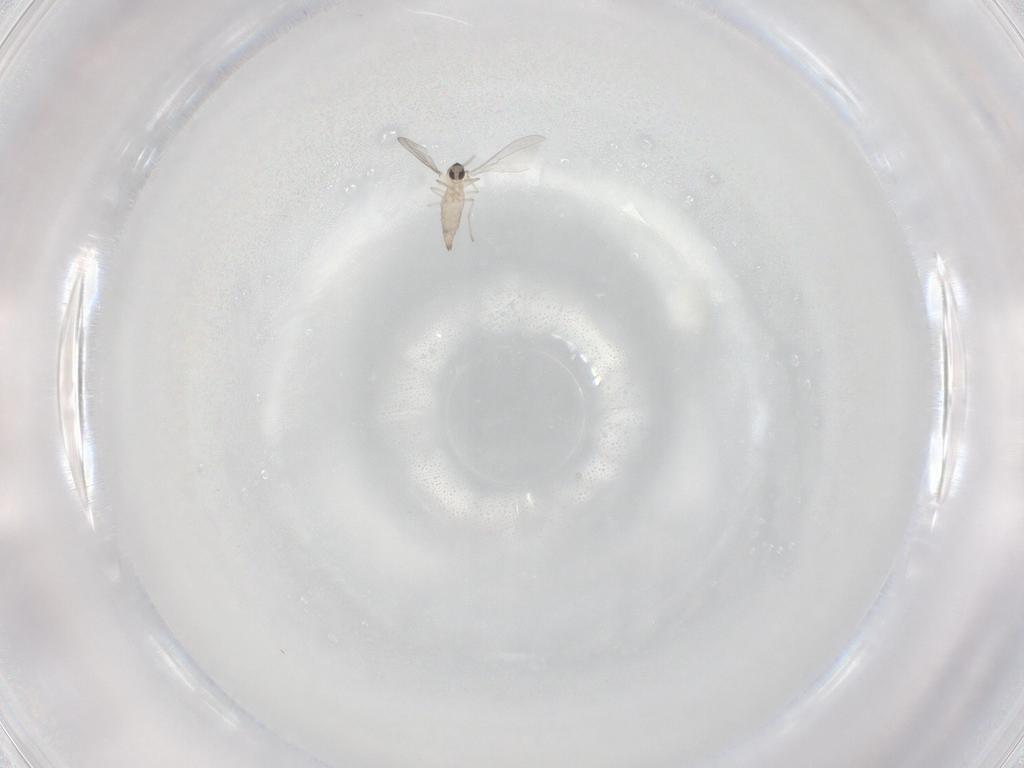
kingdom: Animalia
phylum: Arthropoda
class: Insecta
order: Diptera
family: Cecidomyiidae
